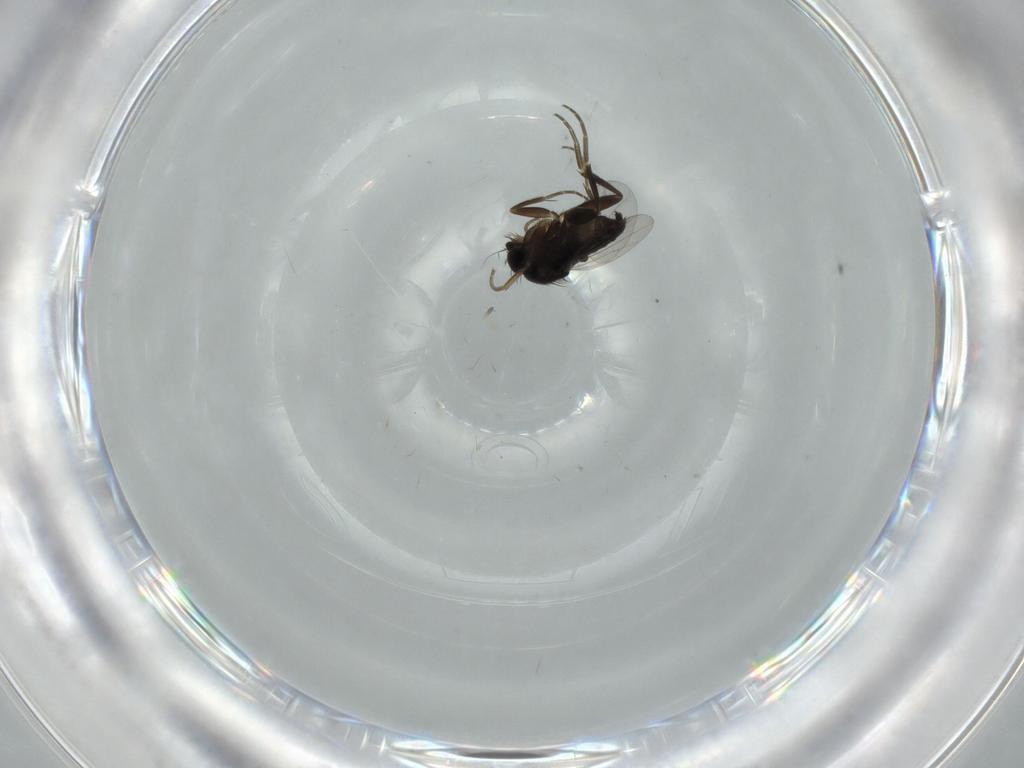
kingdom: Animalia
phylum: Arthropoda
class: Insecta
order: Diptera
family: Phoridae
